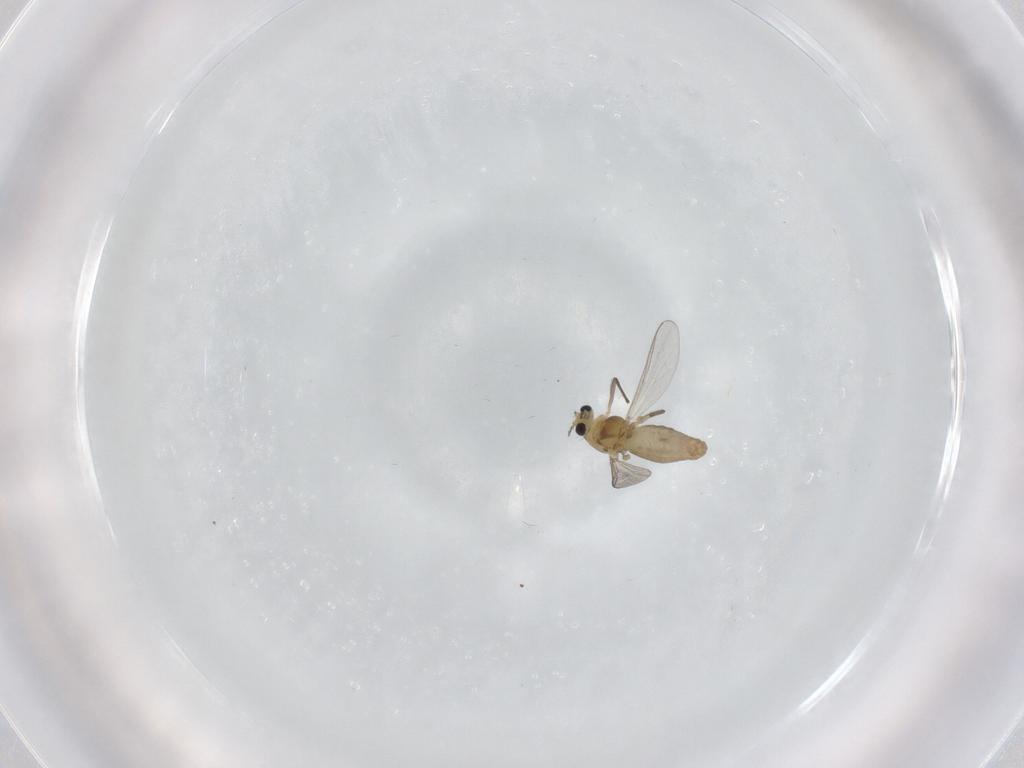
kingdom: Animalia
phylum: Arthropoda
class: Insecta
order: Diptera
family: Chironomidae
